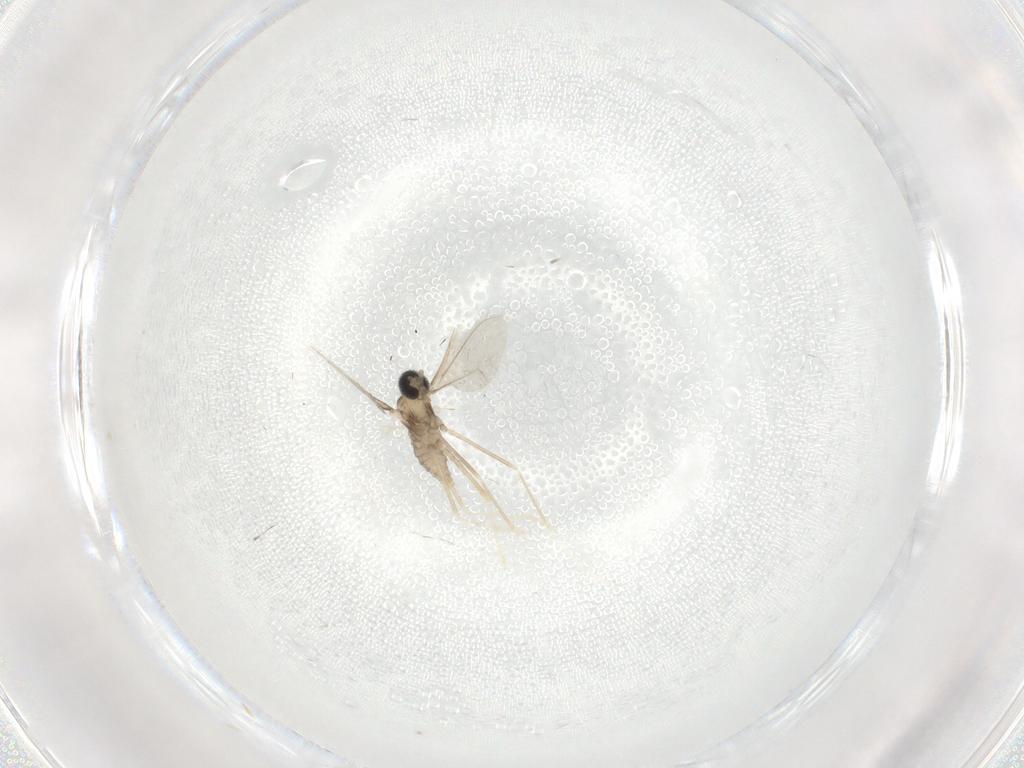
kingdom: Animalia
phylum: Arthropoda
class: Insecta
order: Diptera
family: Cecidomyiidae
